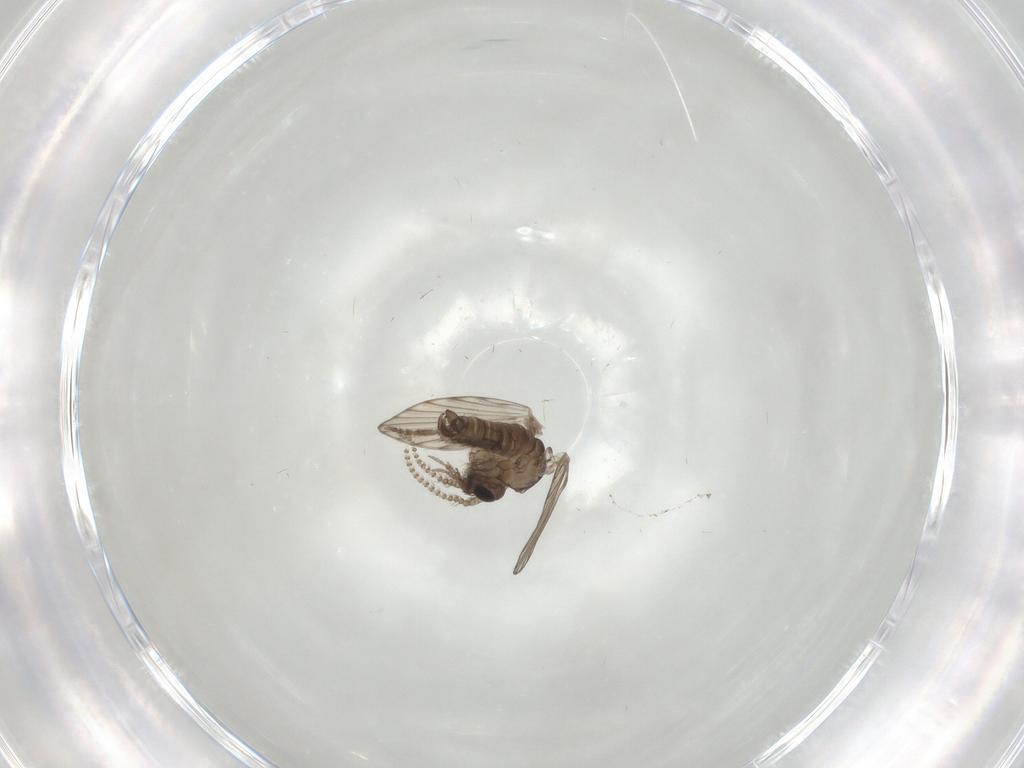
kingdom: Animalia
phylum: Arthropoda
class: Insecta
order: Diptera
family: Psychodidae
